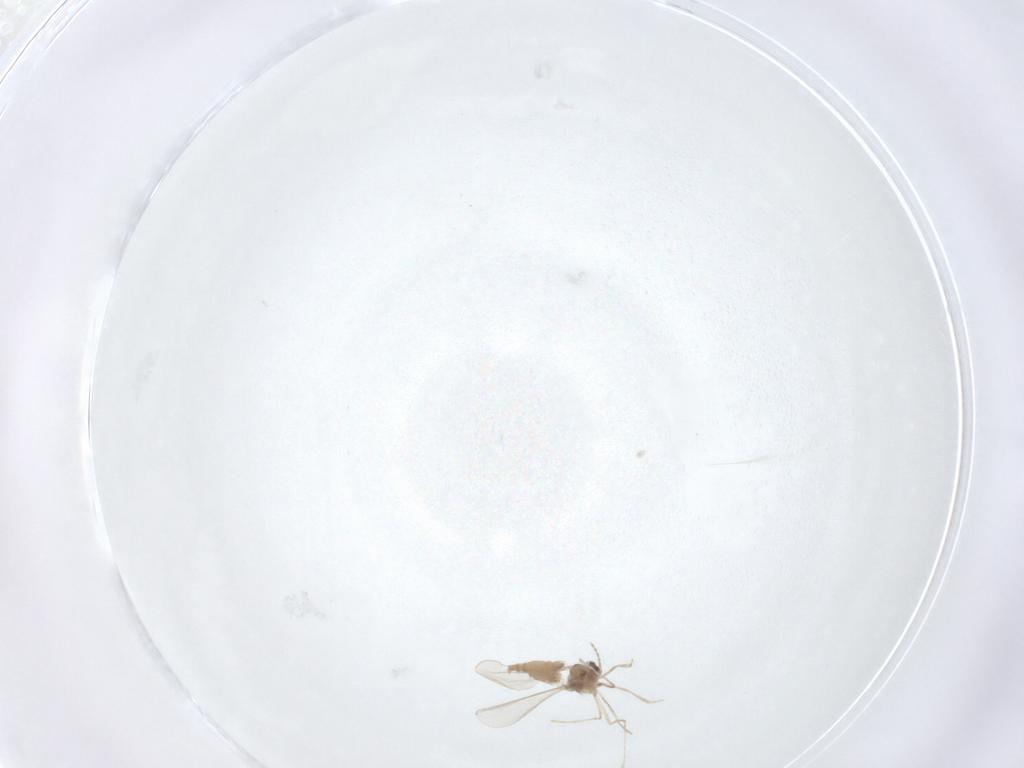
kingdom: Animalia
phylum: Arthropoda
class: Insecta
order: Diptera
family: Cecidomyiidae
